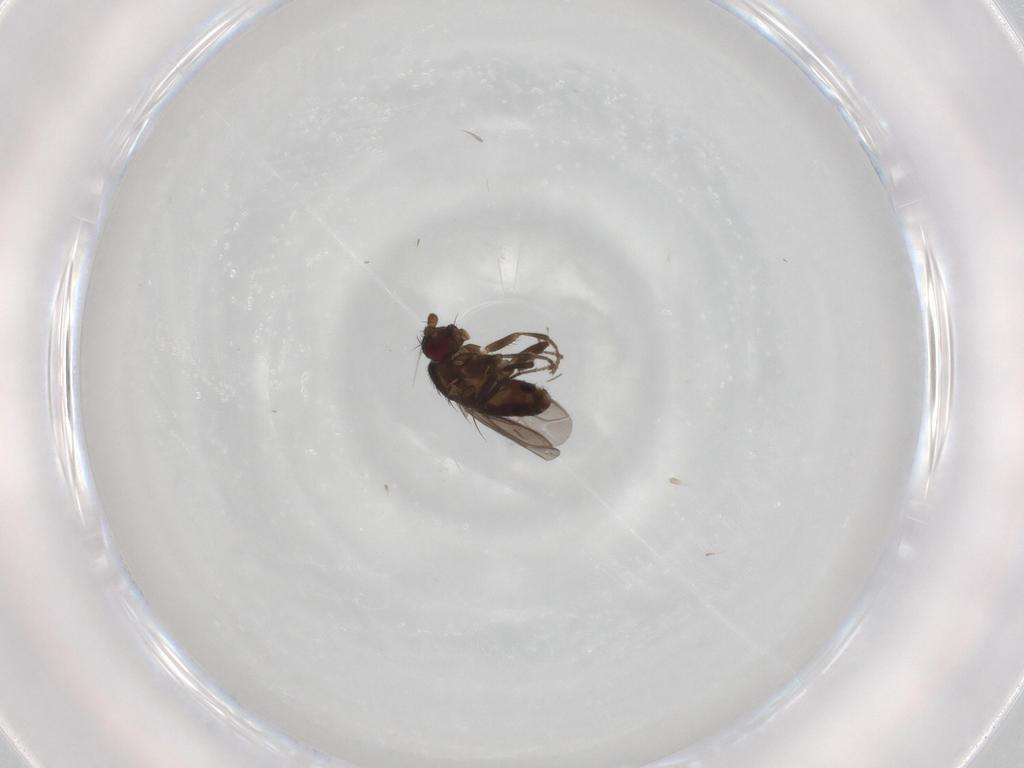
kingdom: Animalia
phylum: Arthropoda
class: Insecta
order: Diptera
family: Sphaeroceridae
